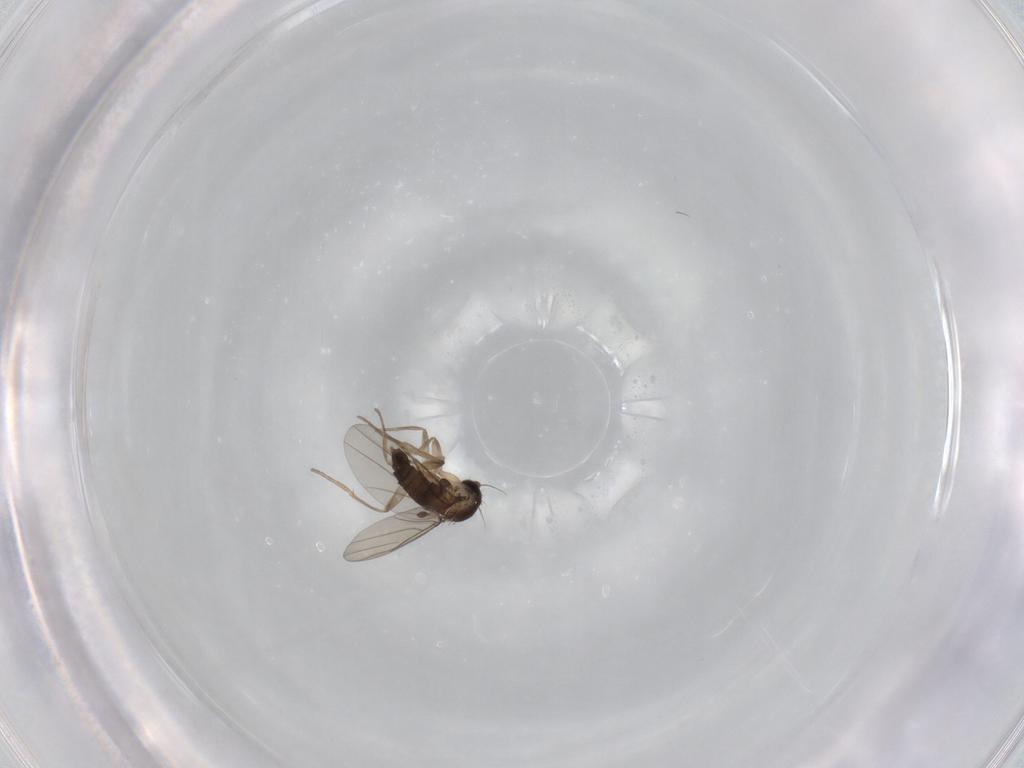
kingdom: Animalia
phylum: Arthropoda
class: Insecta
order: Diptera
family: Phoridae
